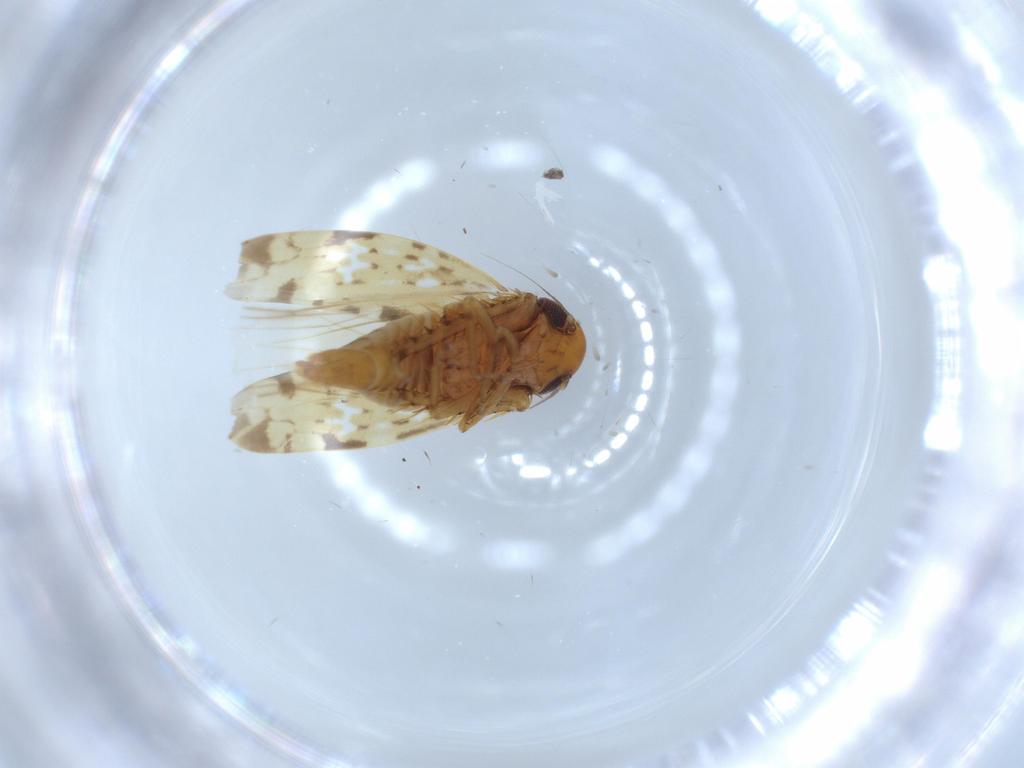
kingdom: Animalia
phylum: Arthropoda
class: Insecta
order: Hemiptera
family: Cicadellidae
